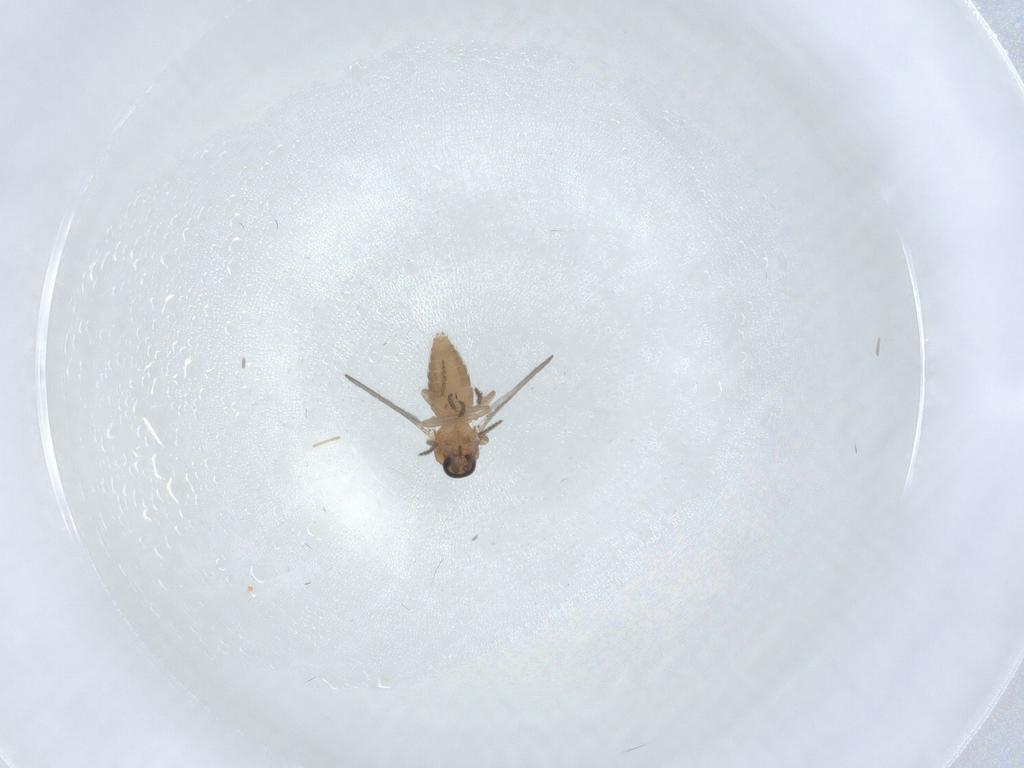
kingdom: Animalia
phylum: Arthropoda
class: Insecta
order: Diptera
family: Ceratopogonidae
